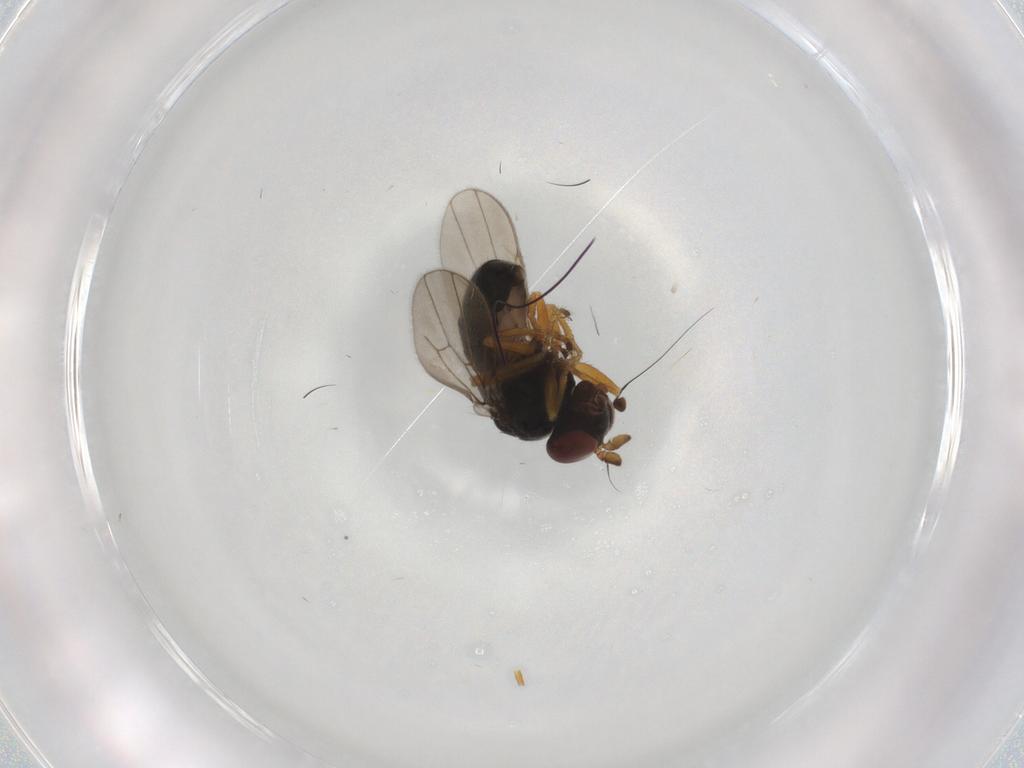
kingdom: Animalia
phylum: Arthropoda
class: Insecta
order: Diptera
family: Ephydridae
